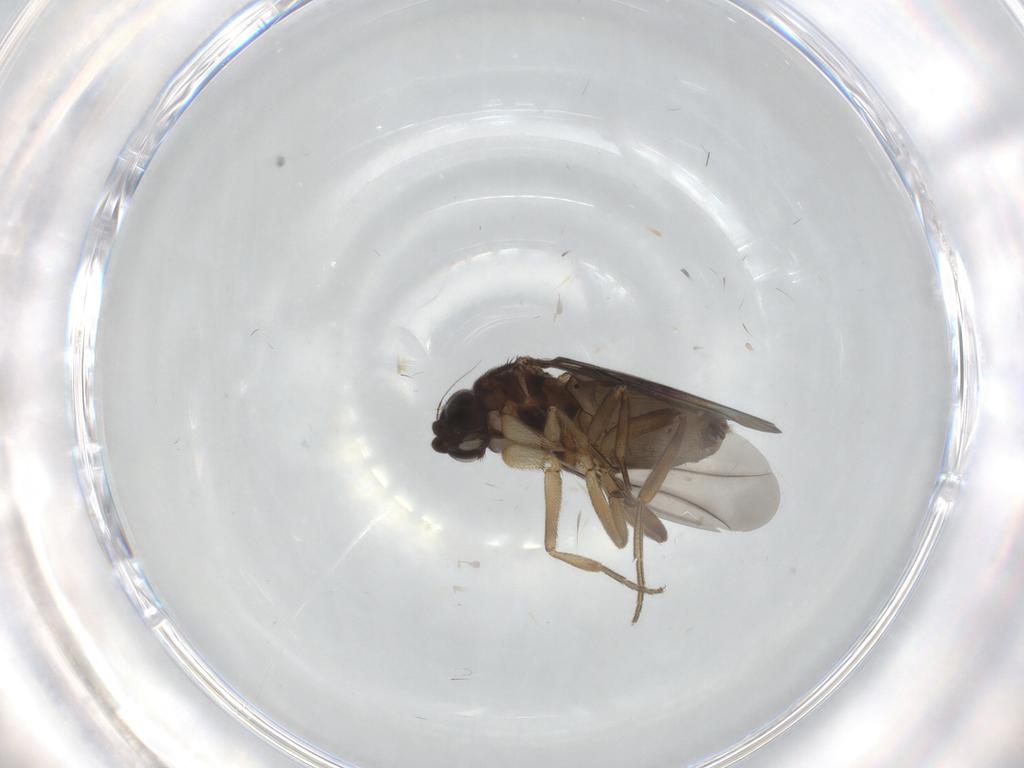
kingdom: Animalia
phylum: Arthropoda
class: Insecta
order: Diptera
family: Phoridae
